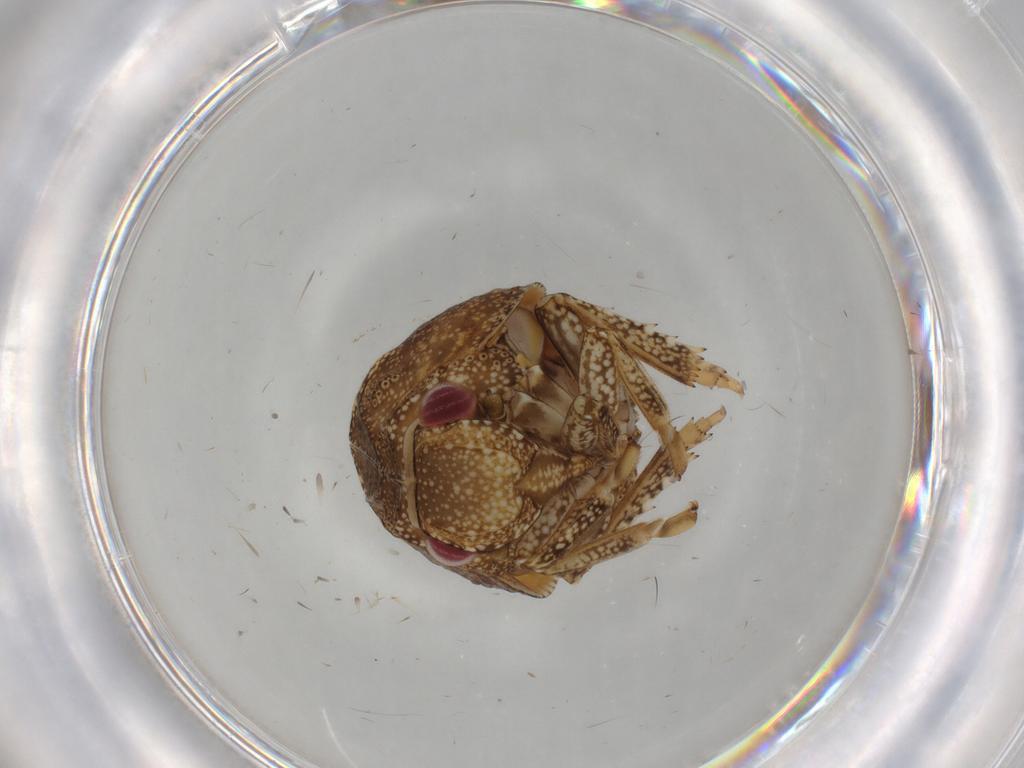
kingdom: Animalia
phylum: Arthropoda
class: Insecta
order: Hemiptera
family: Acanaloniidae
